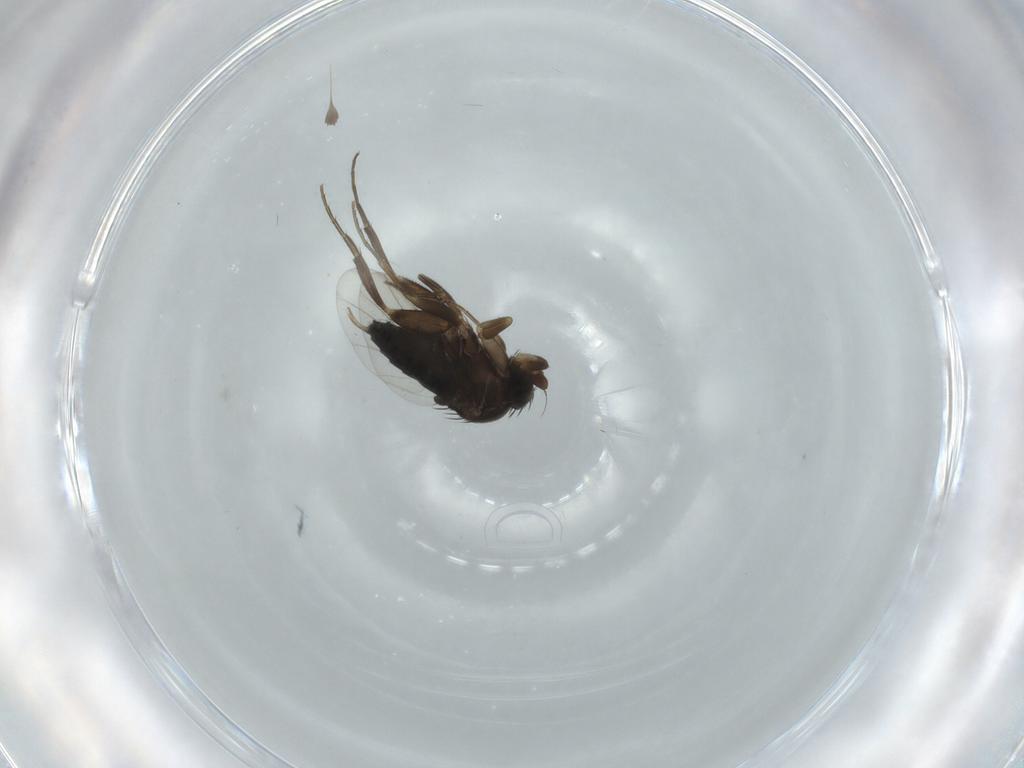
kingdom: Animalia
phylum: Arthropoda
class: Insecta
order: Diptera
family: Phoridae
